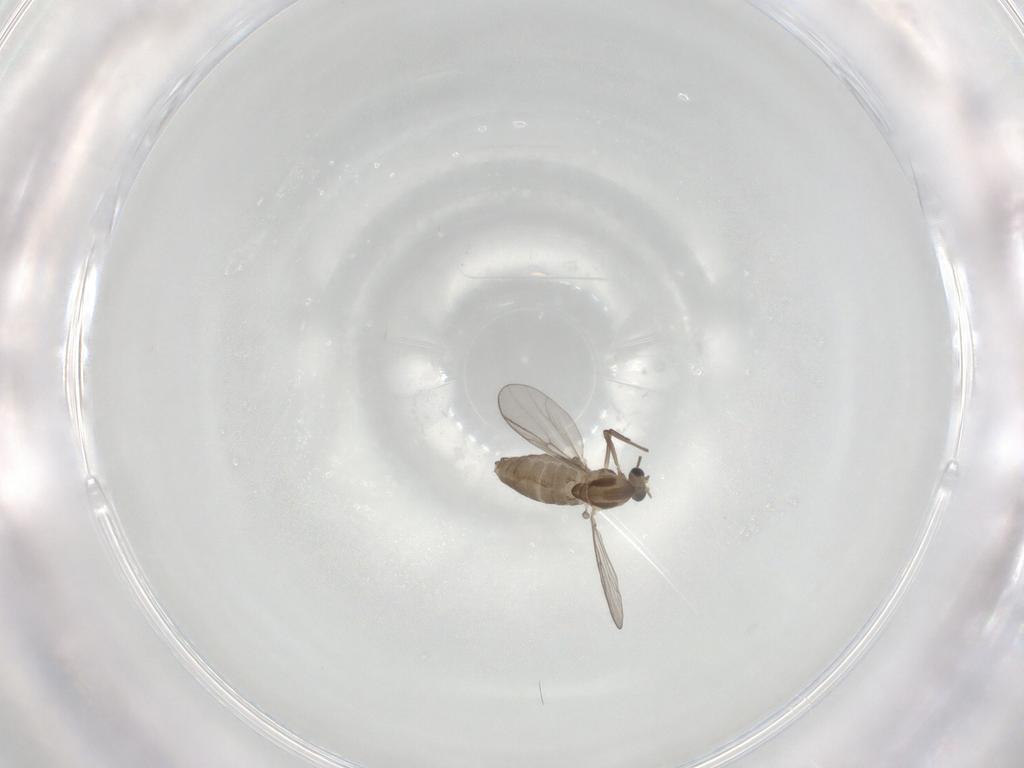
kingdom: Animalia
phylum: Arthropoda
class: Insecta
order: Diptera
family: Chironomidae
